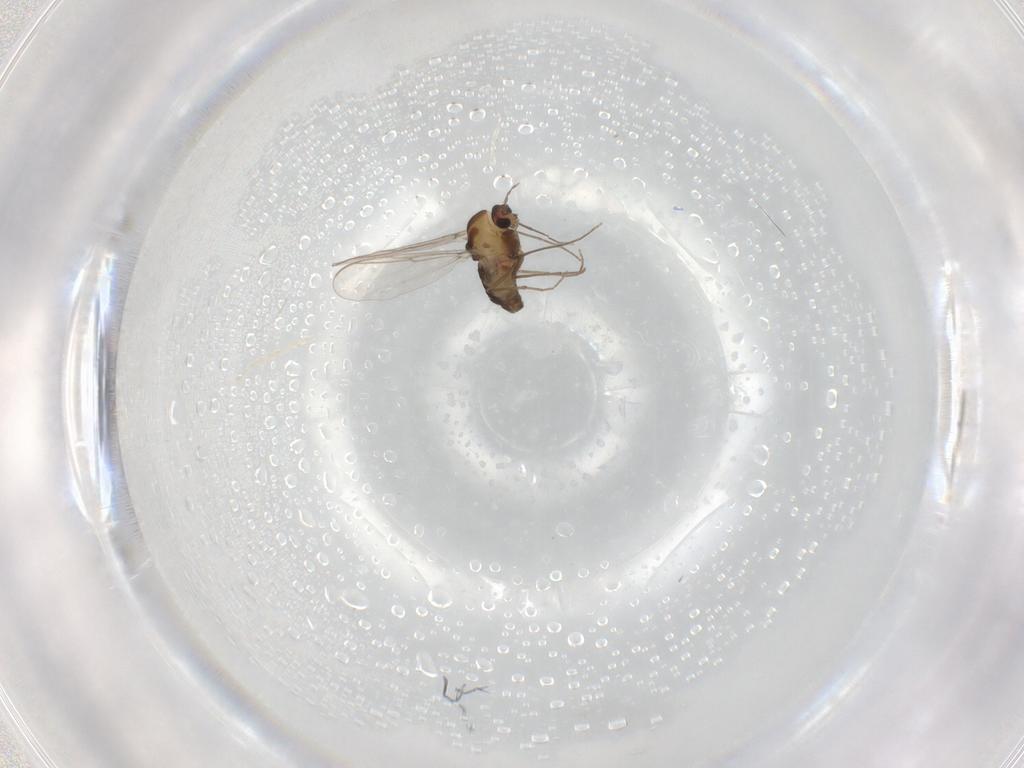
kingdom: Animalia
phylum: Arthropoda
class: Insecta
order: Diptera
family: Chironomidae
